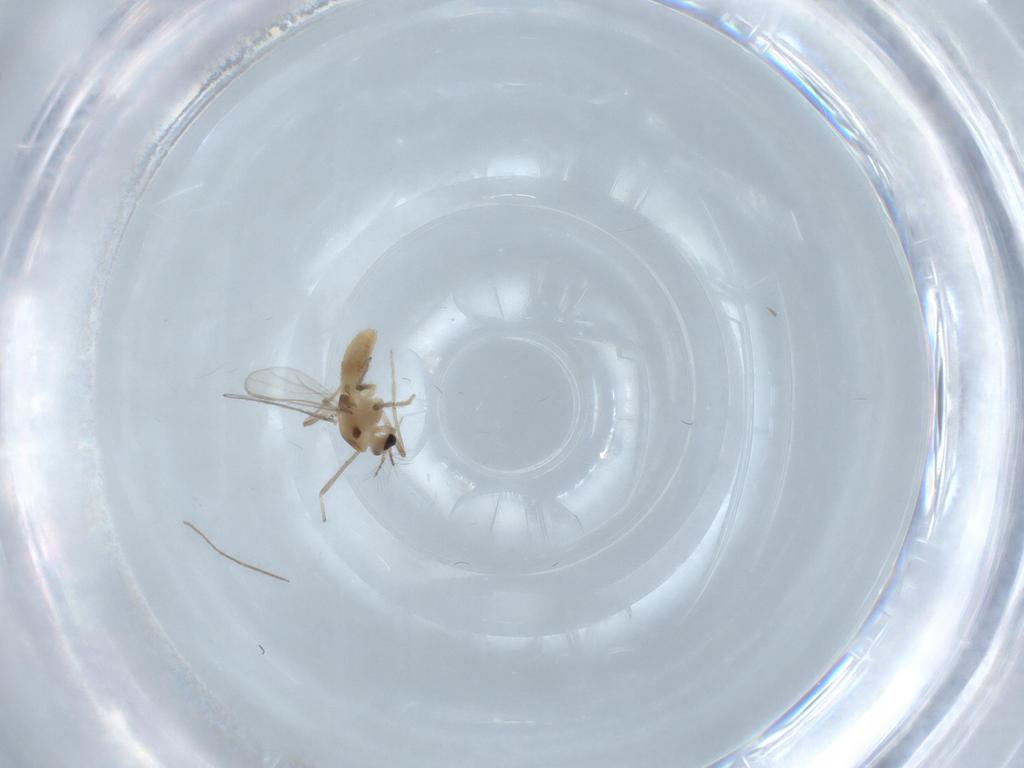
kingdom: Animalia
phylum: Arthropoda
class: Insecta
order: Diptera
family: Chironomidae
